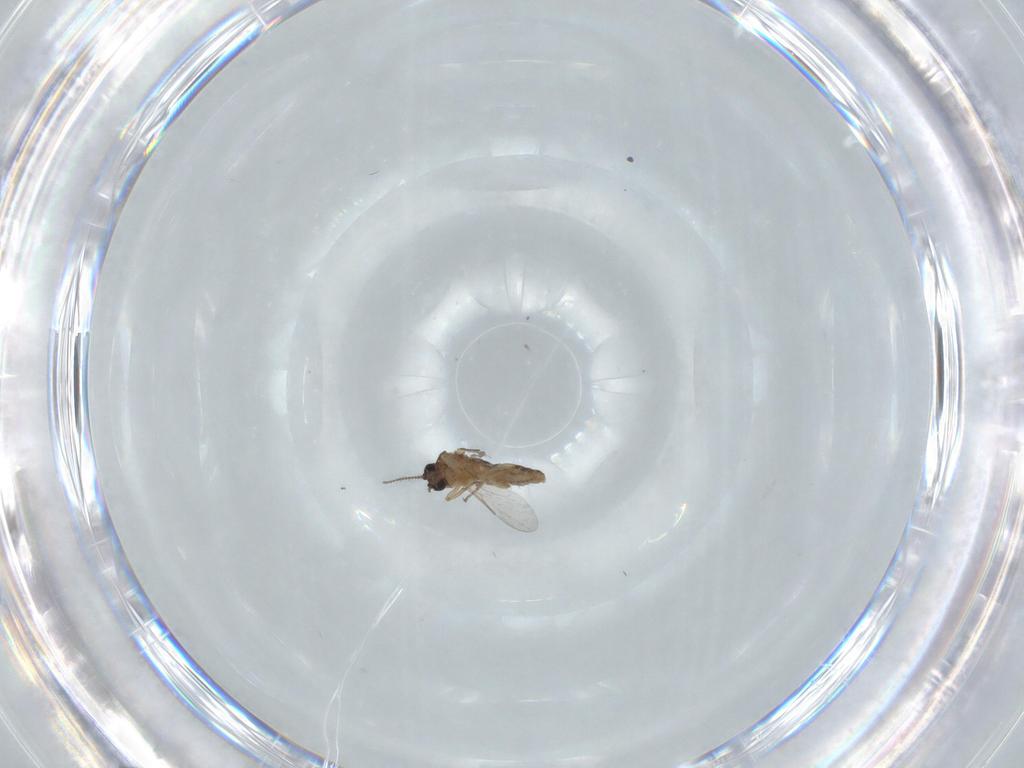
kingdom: Animalia
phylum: Arthropoda
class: Insecta
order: Diptera
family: Ceratopogonidae
